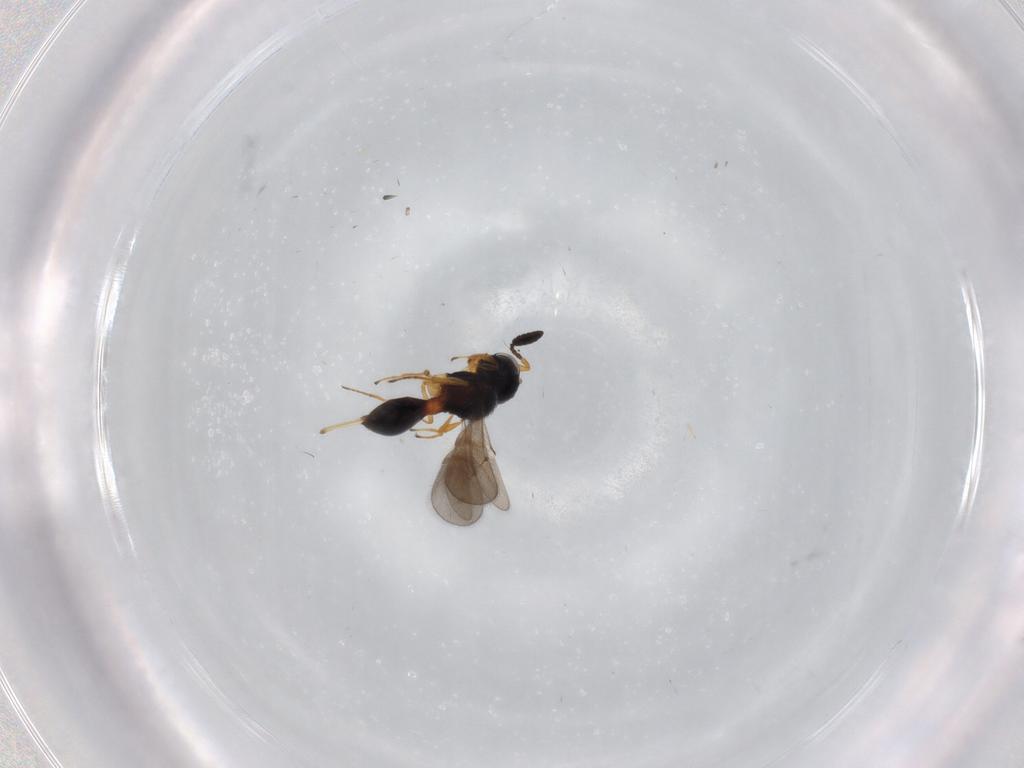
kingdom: Animalia
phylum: Arthropoda
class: Insecta
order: Hymenoptera
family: Scelionidae
